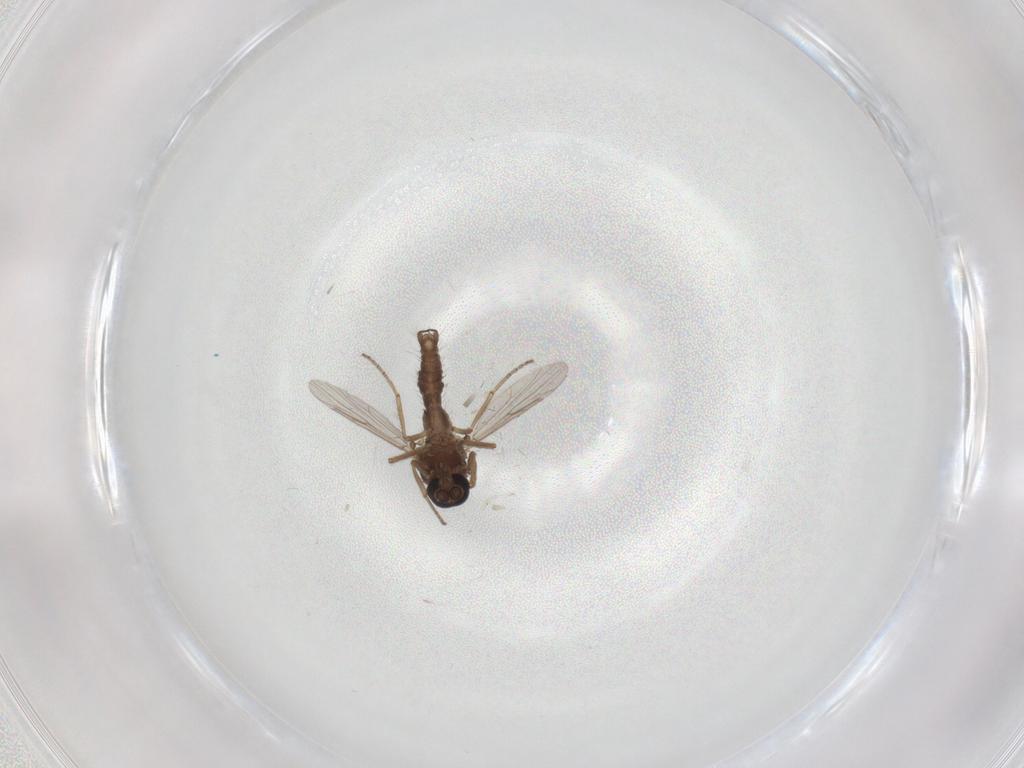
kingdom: Animalia
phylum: Arthropoda
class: Insecta
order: Diptera
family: Ceratopogonidae
